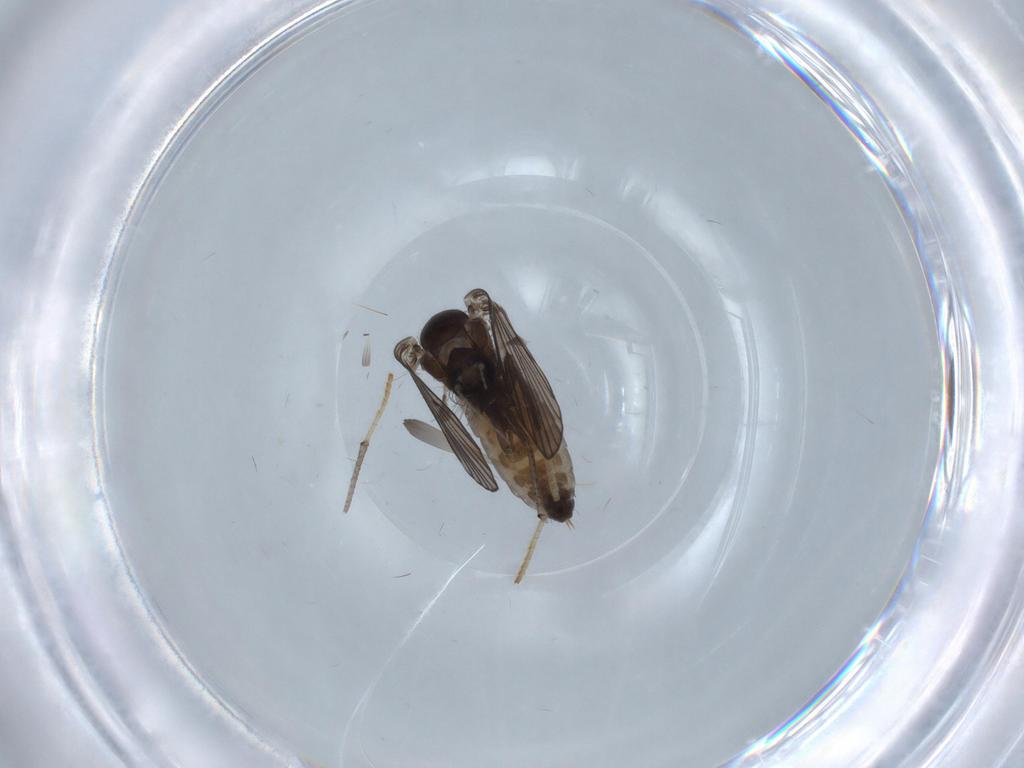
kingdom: Animalia
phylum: Arthropoda
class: Insecta
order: Diptera
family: Psychodidae
